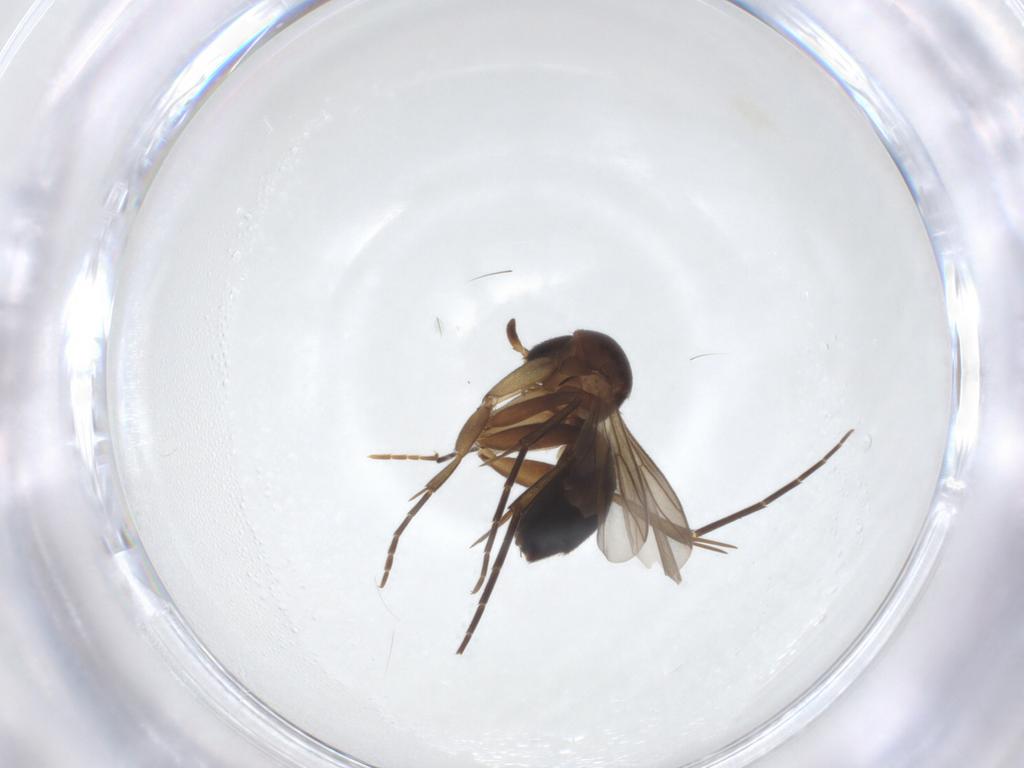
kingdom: Animalia
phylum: Arthropoda
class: Insecta
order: Diptera
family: Mycetophilidae
